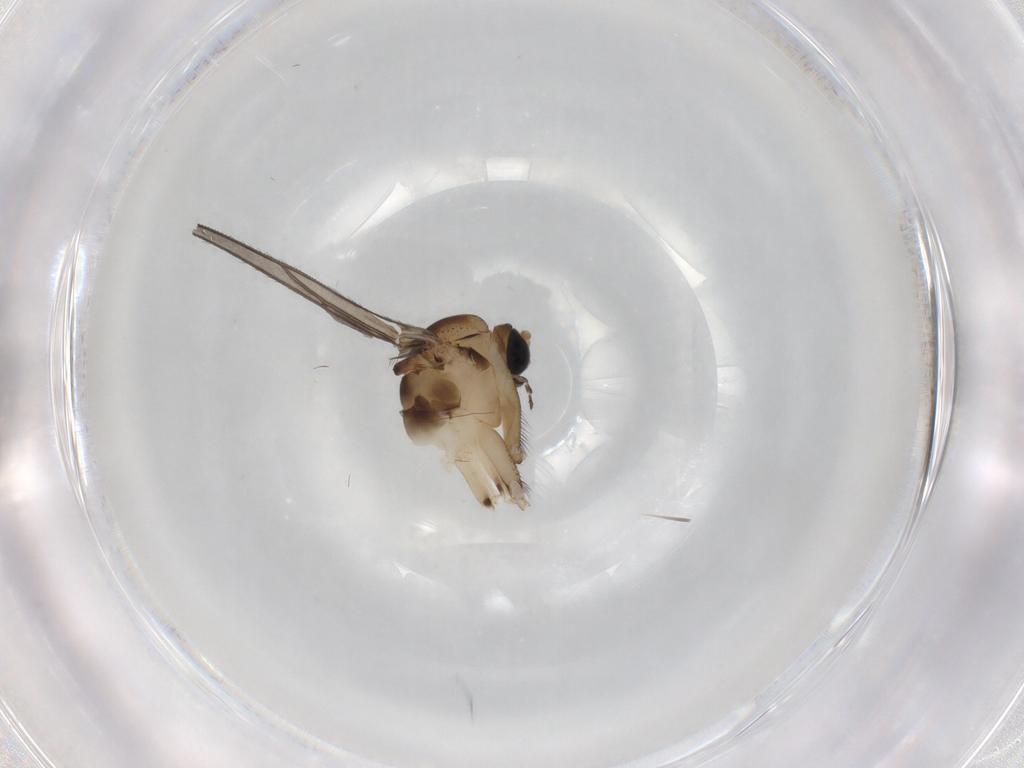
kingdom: Animalia
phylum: Arthropoda
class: Insecta
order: Diptera
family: Sciaridae
